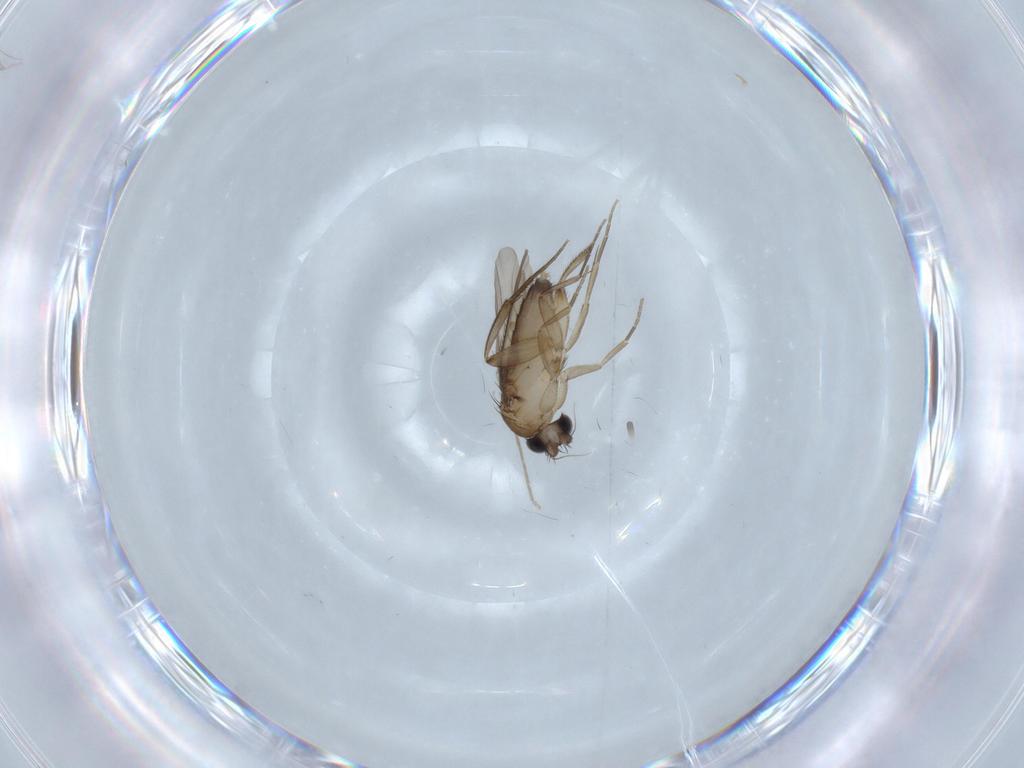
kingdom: Animalia
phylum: Arthropoda
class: Insecta
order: Diptera
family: Phoridae
